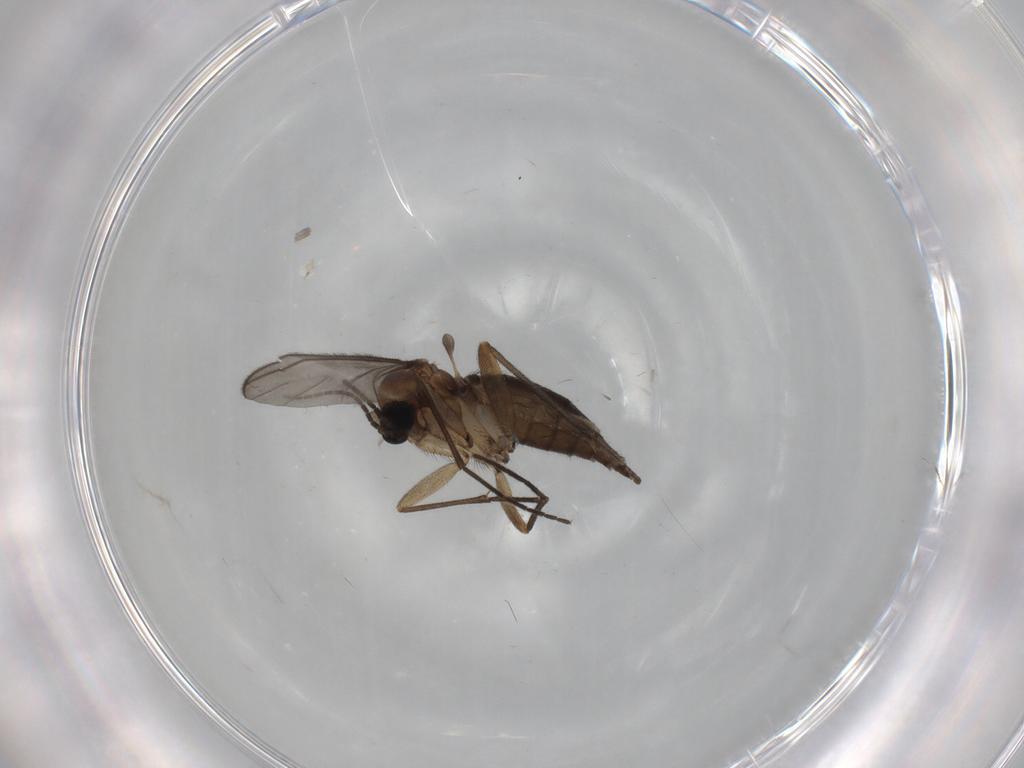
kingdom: Animalia
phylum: Arthropoda
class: Insecta
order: Diptera
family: Sciaridae
